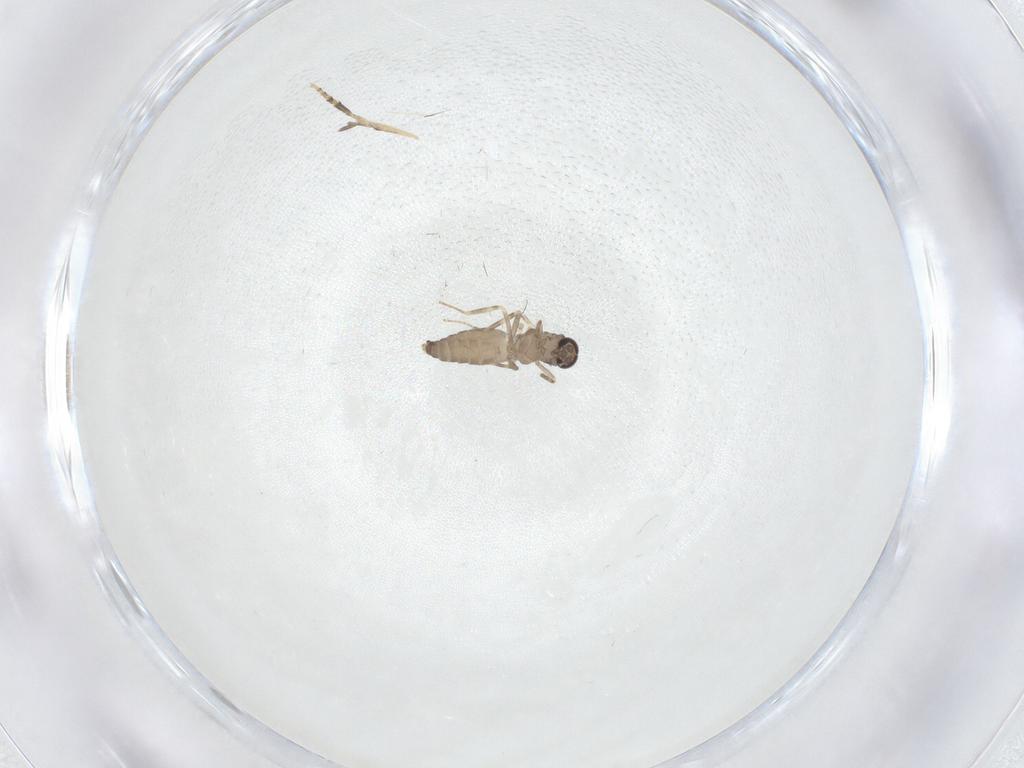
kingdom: Animalia
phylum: Arthropoda
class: Insecta
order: Diptera
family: Ceratopogonidae
